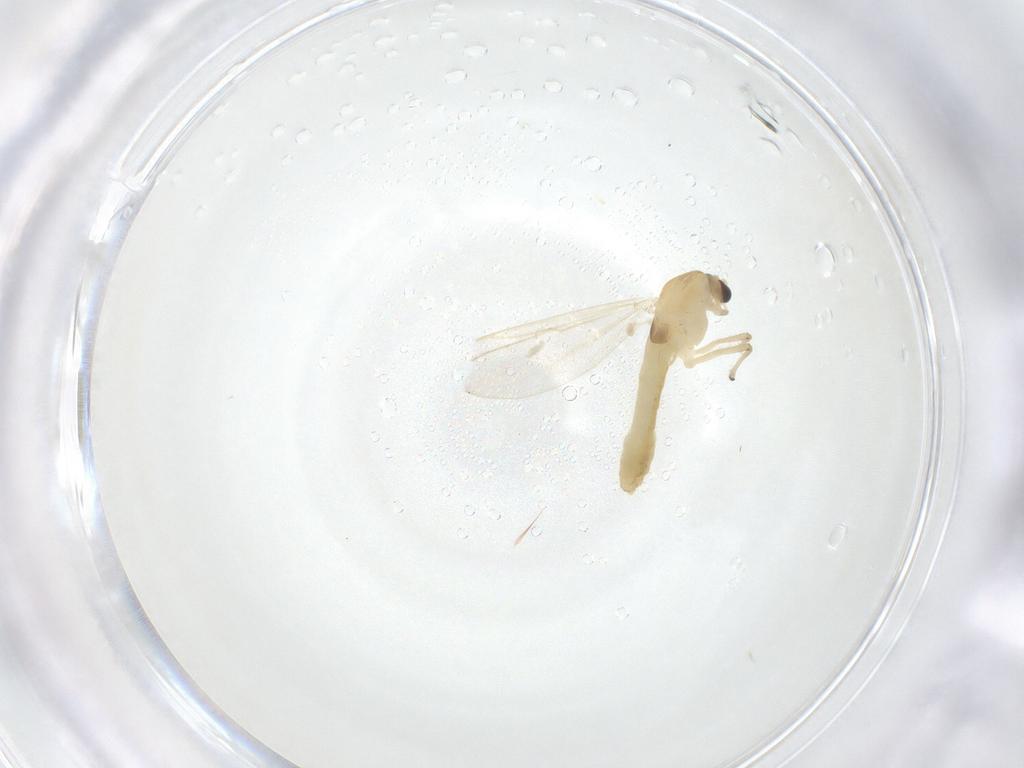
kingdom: Animalia
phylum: Arthropoda
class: Insecta
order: Diptera
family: Chironomidae
